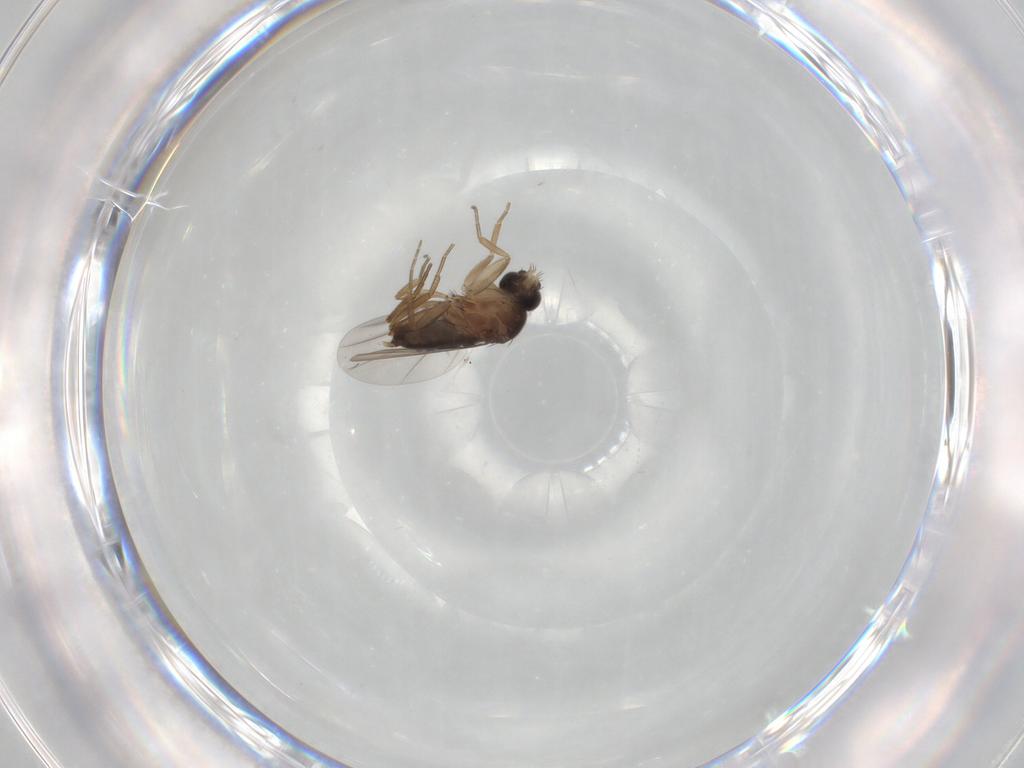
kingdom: Animalia
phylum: Arthropoda
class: Insecta
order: Diptera
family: Phoridae
